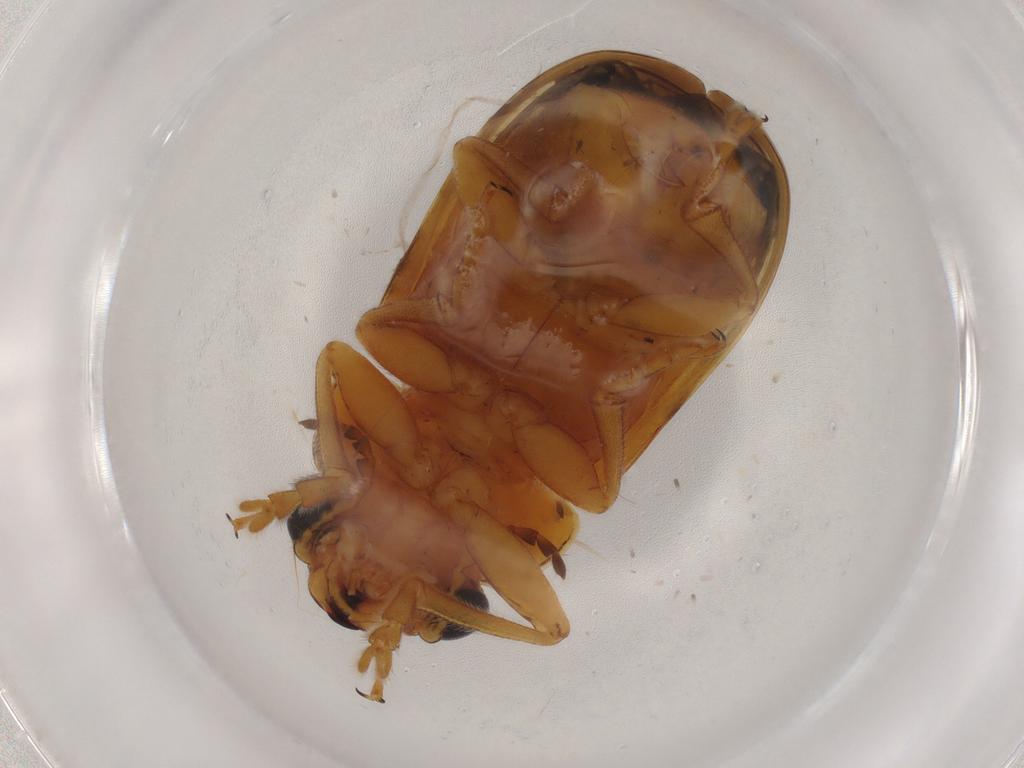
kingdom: Animalia
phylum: Arthropoda
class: Insecta
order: Coleoptera
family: Chrysomelidae
